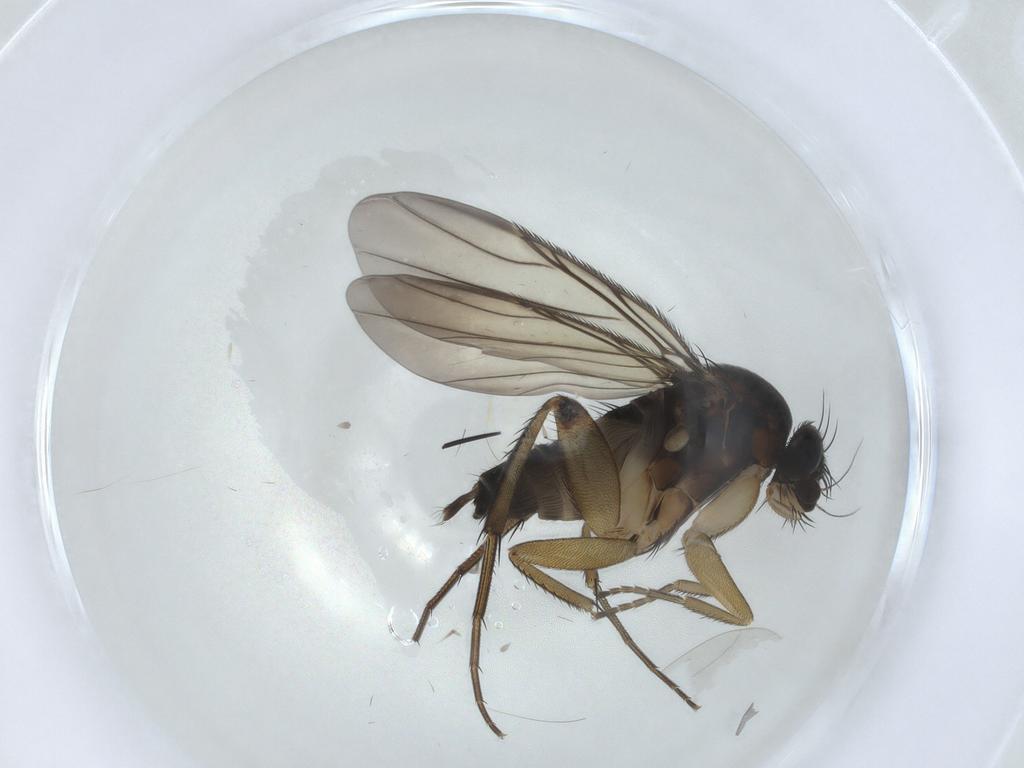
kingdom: Animalia
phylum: Arthropoda
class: Insecta
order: Diptera
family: Phoridae
